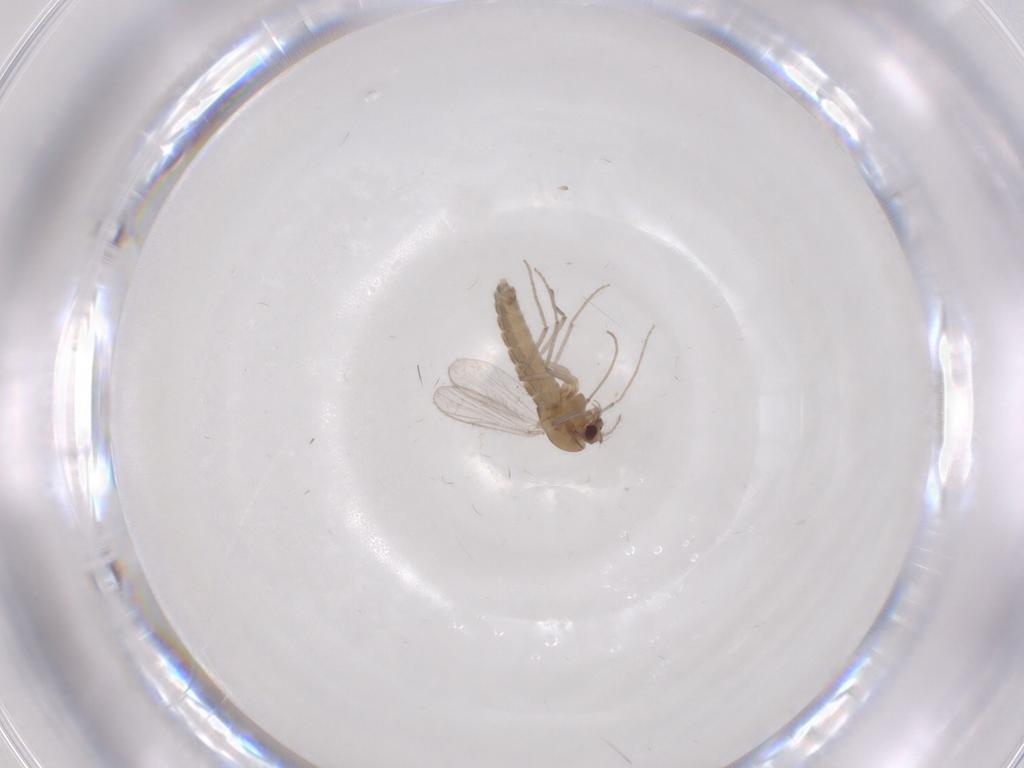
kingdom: Animalia
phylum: Arthropoda
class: Insecta
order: Diptera
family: Chironomidae
